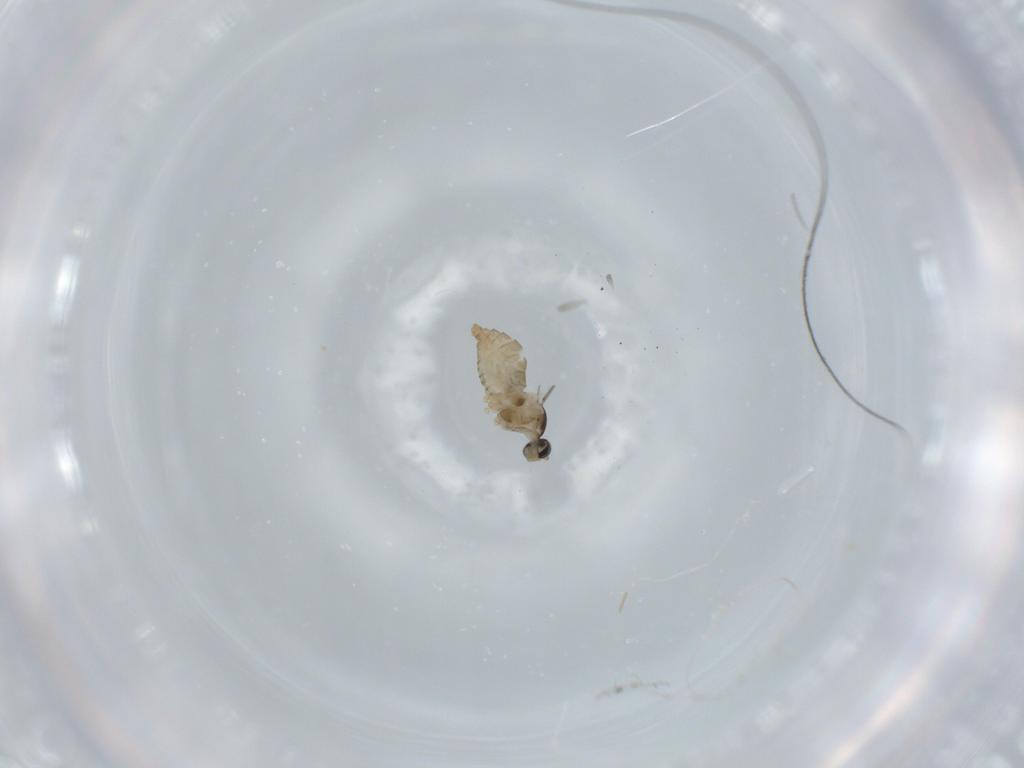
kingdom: Animalia
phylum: Arthropoda
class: Insecta
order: Diptera
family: Cecidomyiidae
